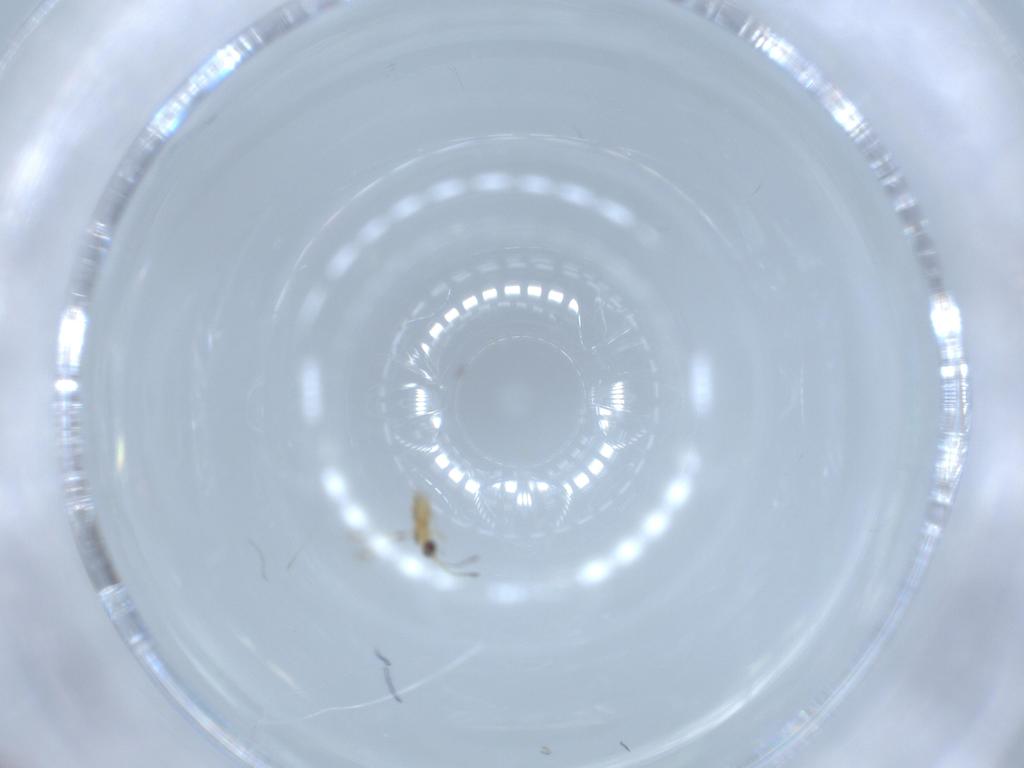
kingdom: Animalia
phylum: Arthropoda
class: Insecta
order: Hymenoptera
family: Mymaridae
